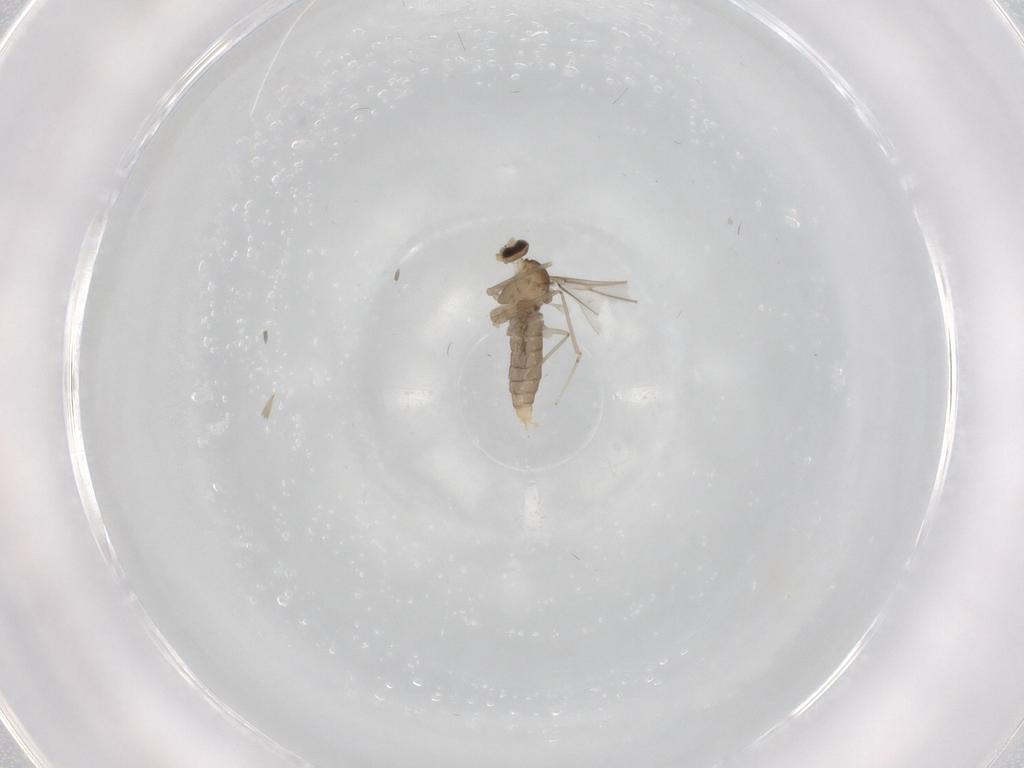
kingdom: Animalia
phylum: Arthropoda
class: Insecta
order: Diptera
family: Cecidomyiidae
